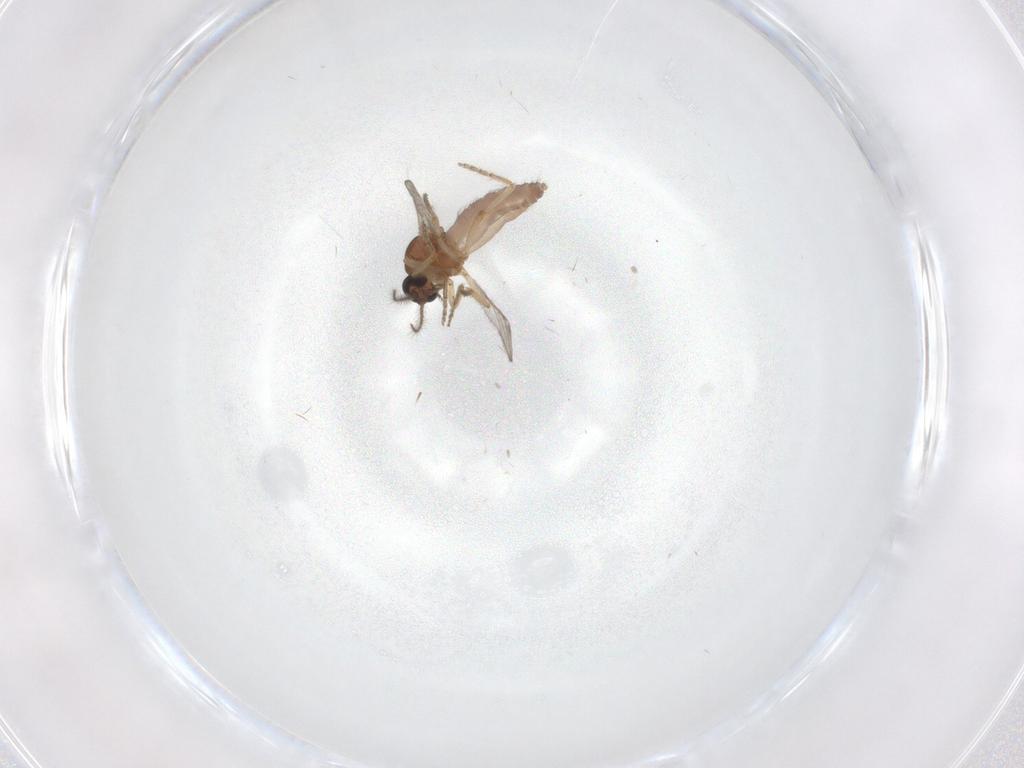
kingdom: Animalia
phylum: Arthropoda
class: Insecta
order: Diptera
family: Ceratopogonidae
